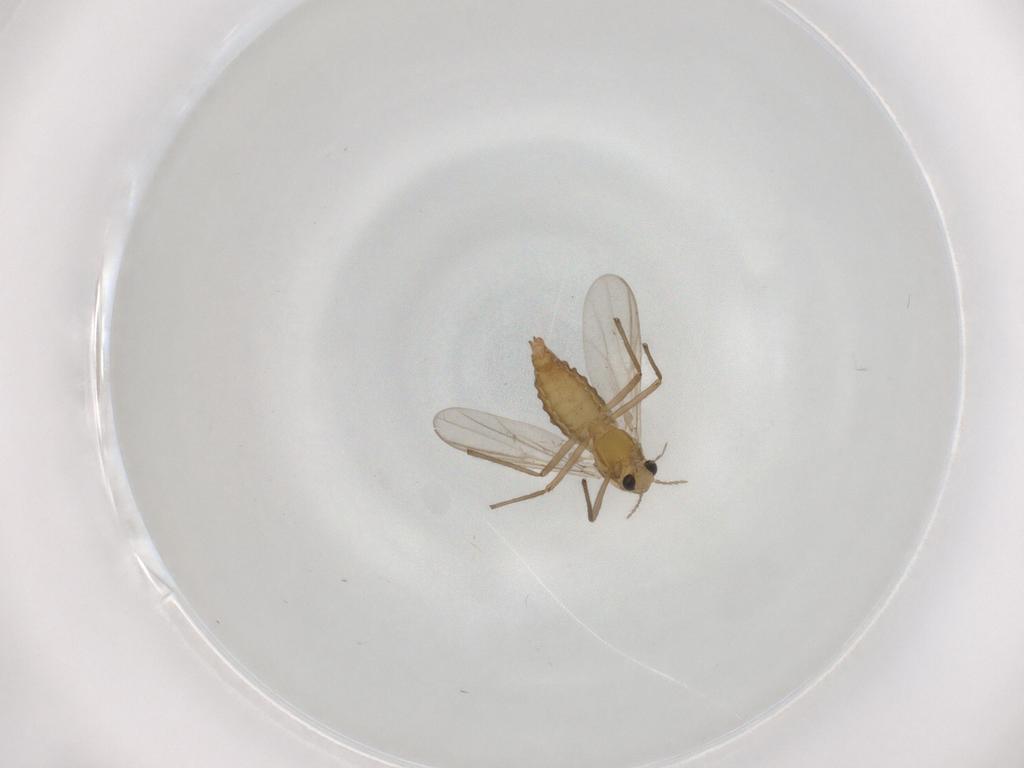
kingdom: Animalia
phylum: Arthropoda
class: Insecta
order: Diptera
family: Chironomidae
